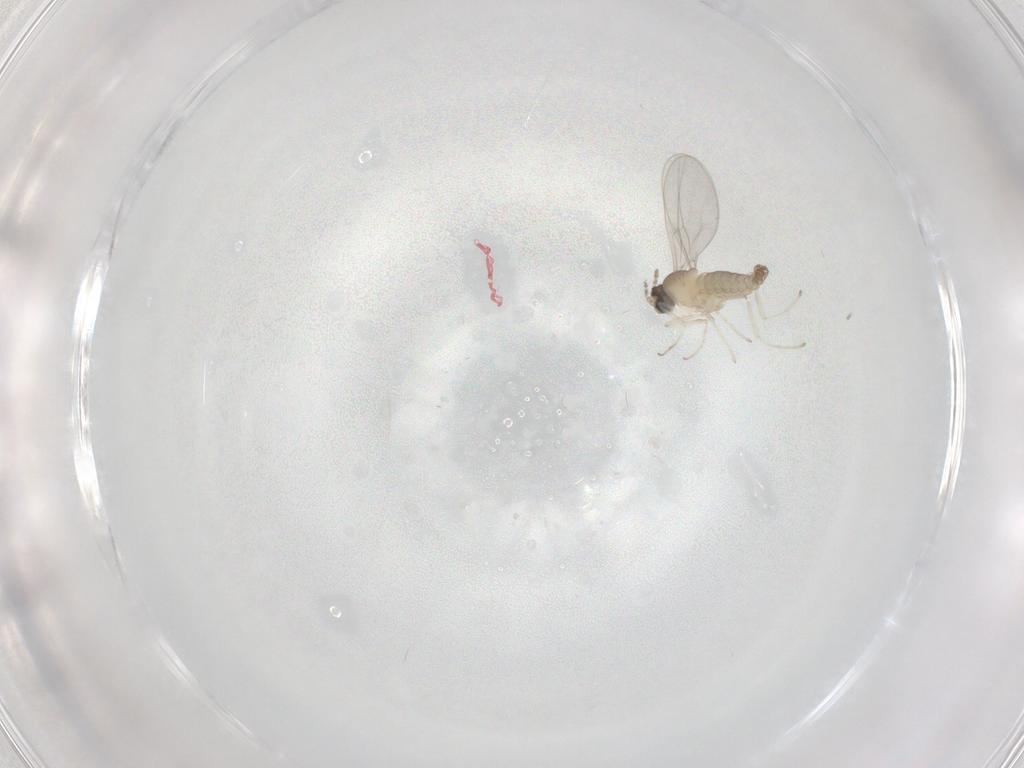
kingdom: Animalia
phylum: Arthropoda
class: Insecta
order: Diptera
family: Cecidomyiidae
